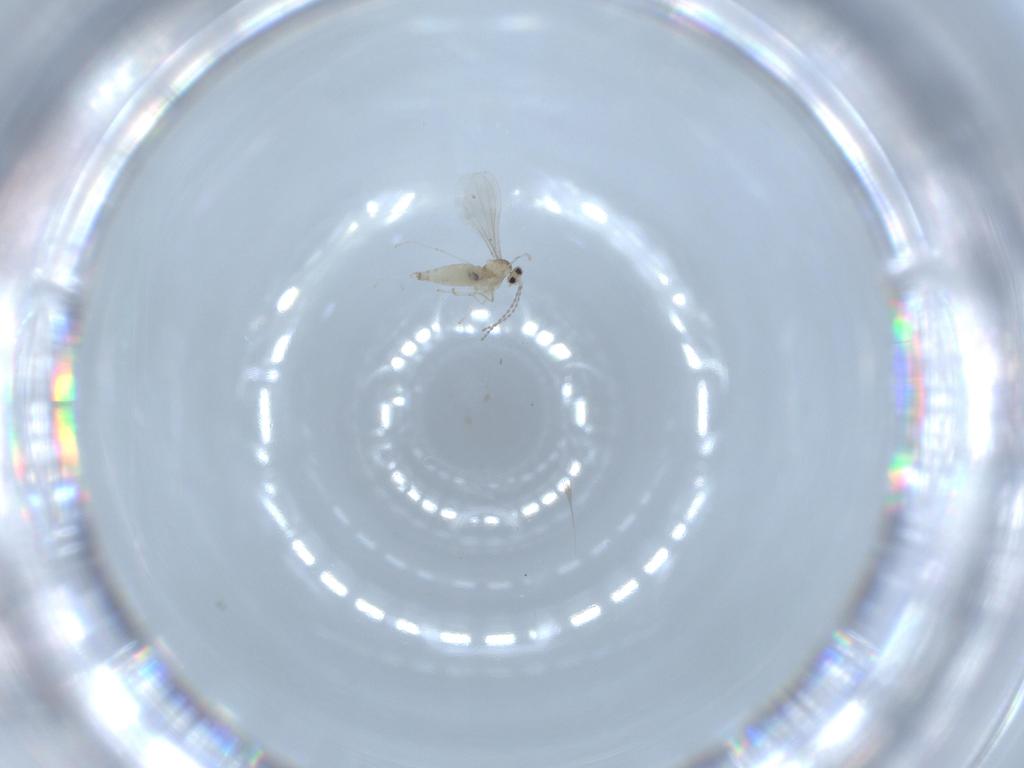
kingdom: Animalia
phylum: Arthropoda
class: Insecta
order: Diptera
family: Cecidomyiidae
